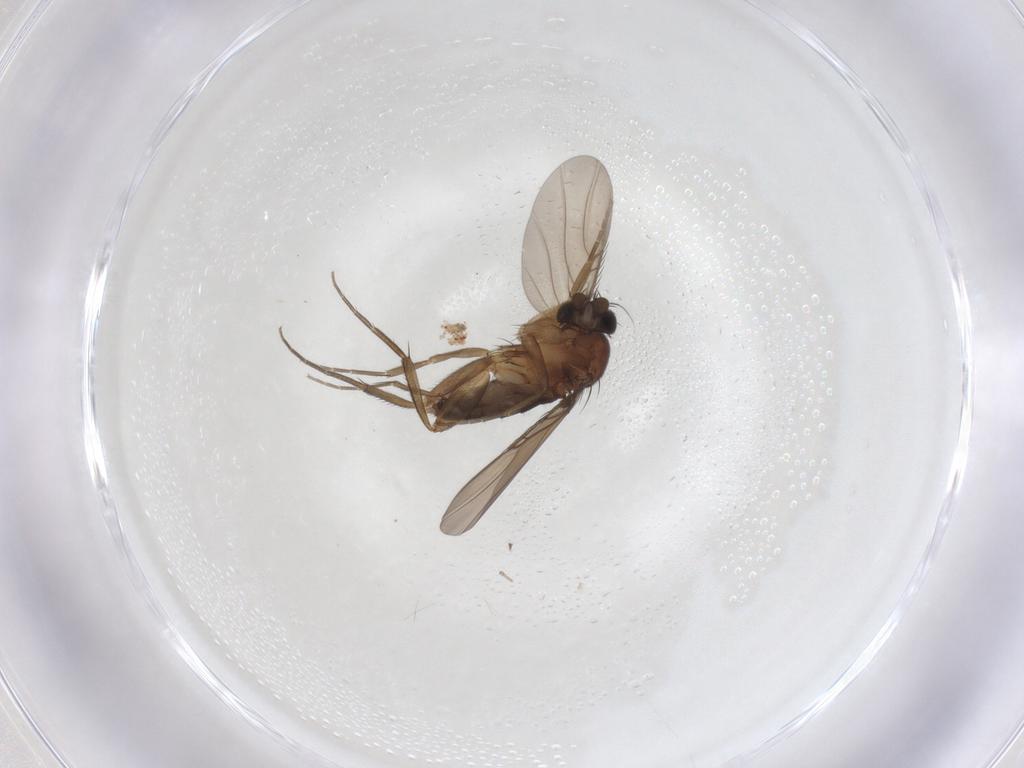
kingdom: Animalia
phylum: Arthropoda
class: Insecta
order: Diptera
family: Phoridae
